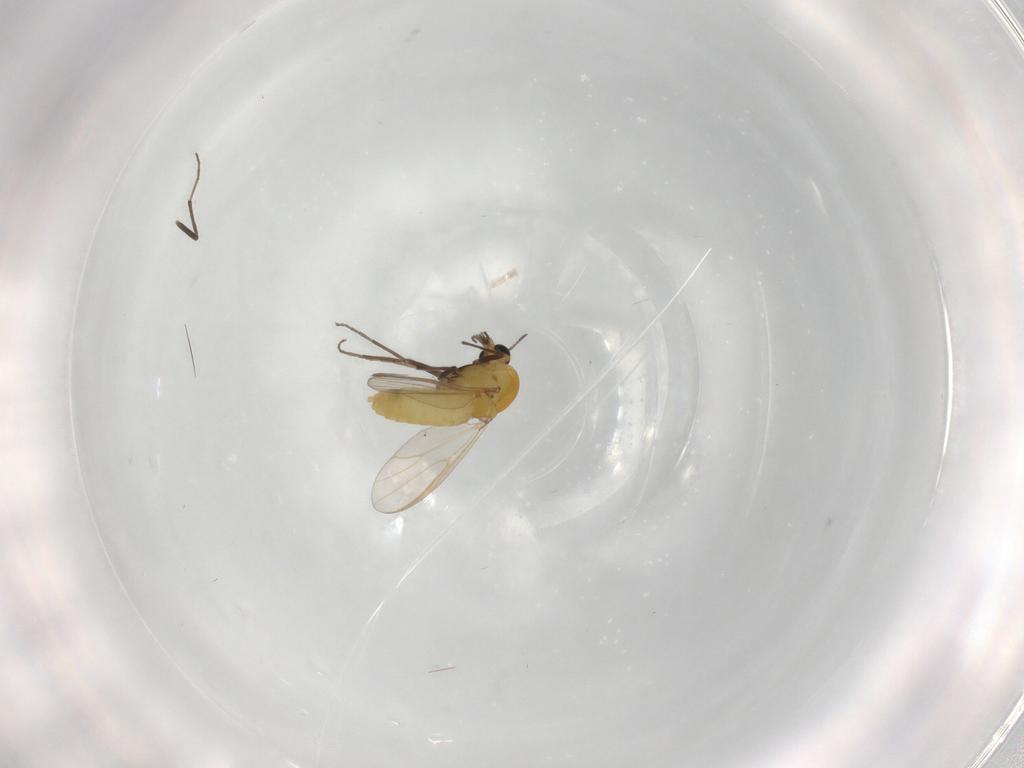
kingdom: Animalia
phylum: Arthropoda
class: Insecta
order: Diptera
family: Chironomidae
